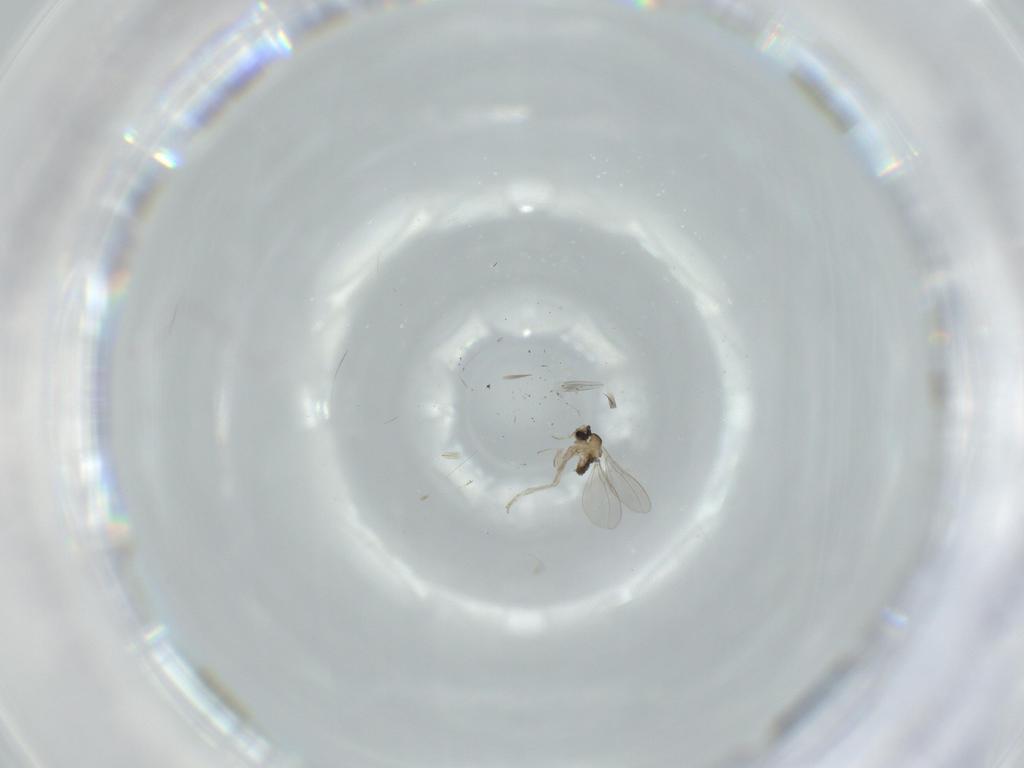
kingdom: Animalia
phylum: Arthropoda
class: Insecta
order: Diptera
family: Cecidomyiidae
